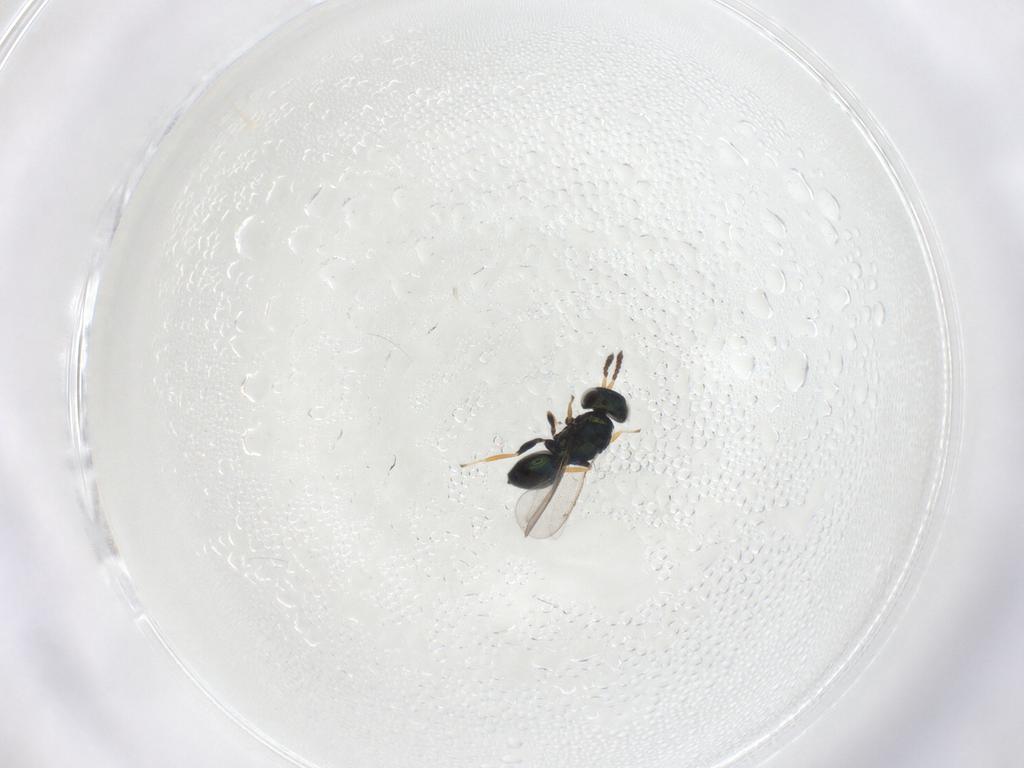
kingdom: Animalia
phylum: Arthropoda
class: Insecta
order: Hymenoptera
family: Eulophidae
